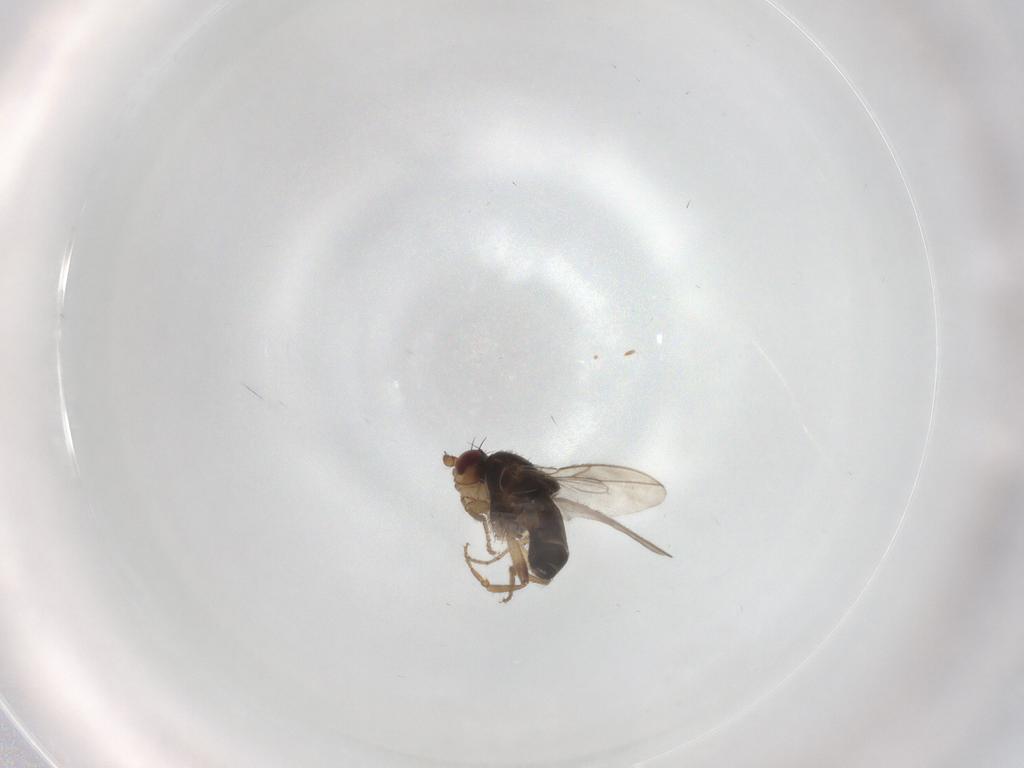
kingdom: Animalia
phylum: Arthropoda
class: Insecta
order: Diptera
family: Sphaeroceridae
